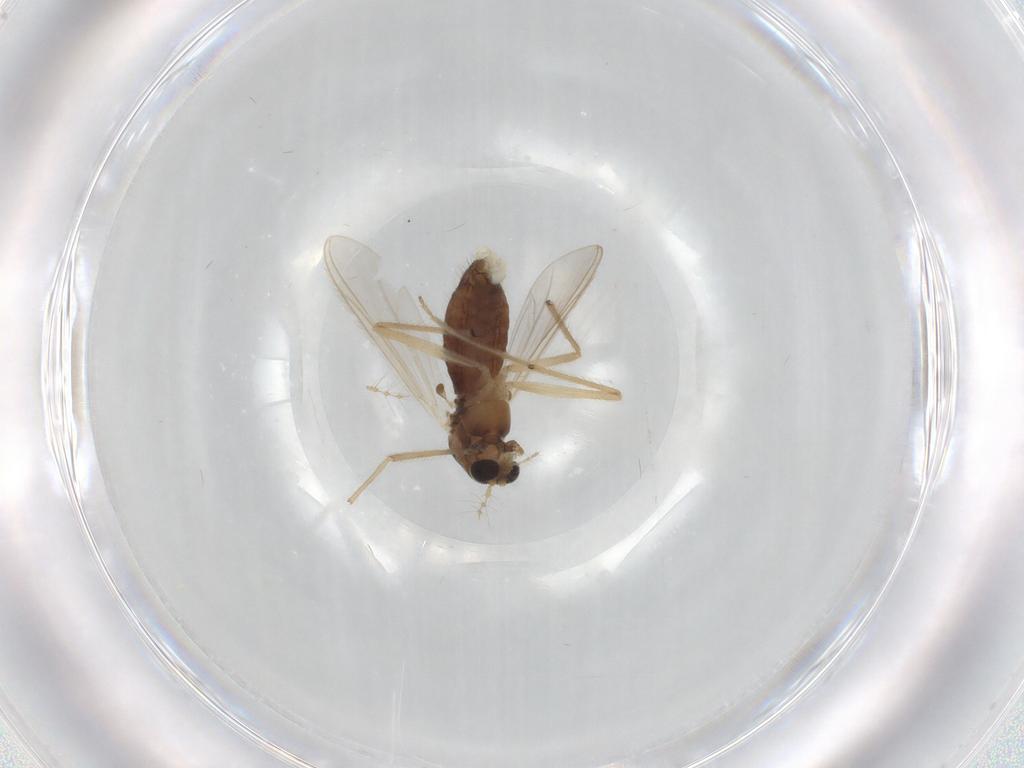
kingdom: Animalia
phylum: Arthropoda
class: Insecta
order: Diptera
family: Chironomidae
